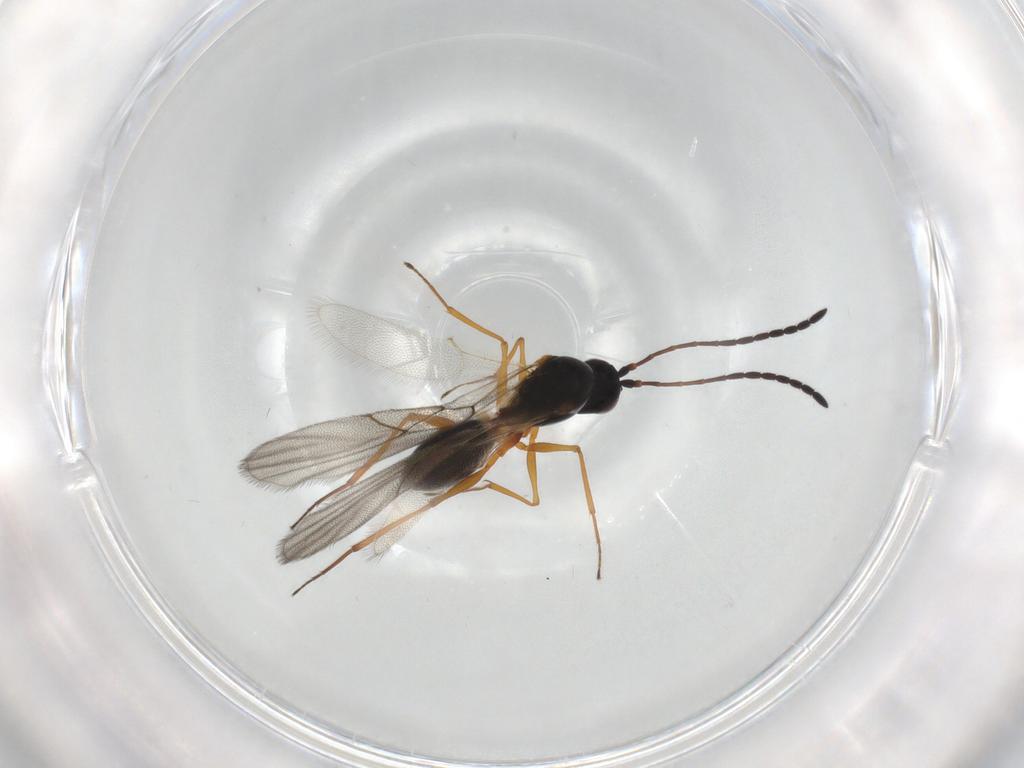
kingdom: Animalia
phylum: Arthropoda
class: Insecta
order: Hymenoptera
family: Figitidae
